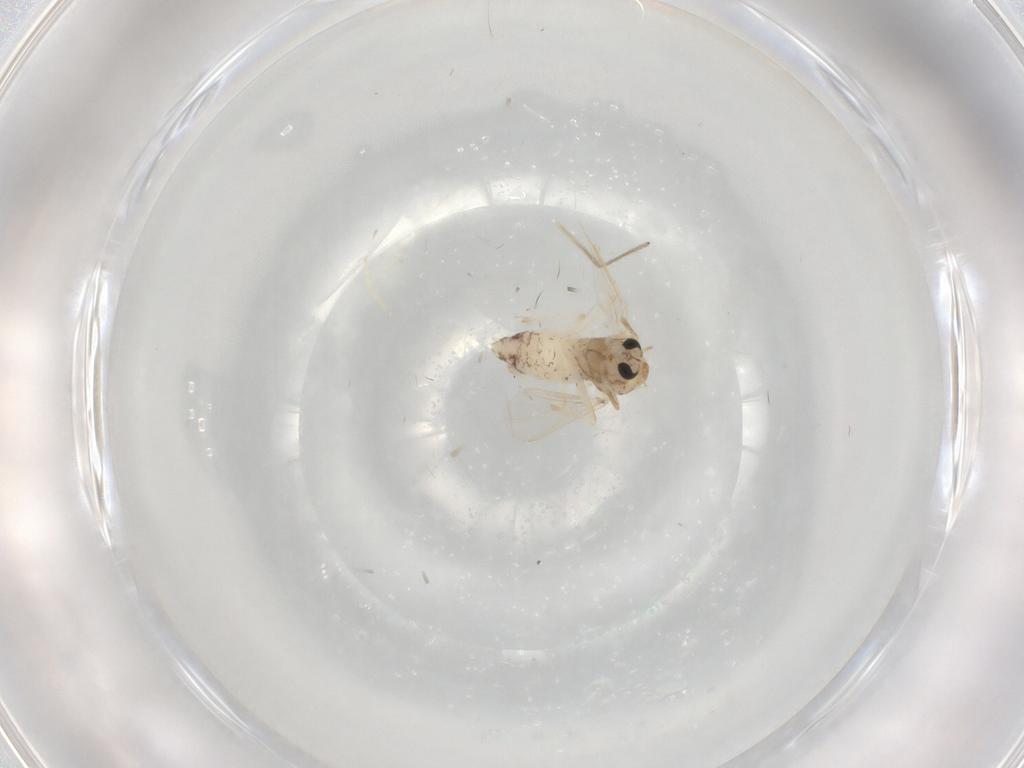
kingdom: Animalia
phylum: Arthropoda
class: Insecta
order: Diptera
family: Chironomidae
